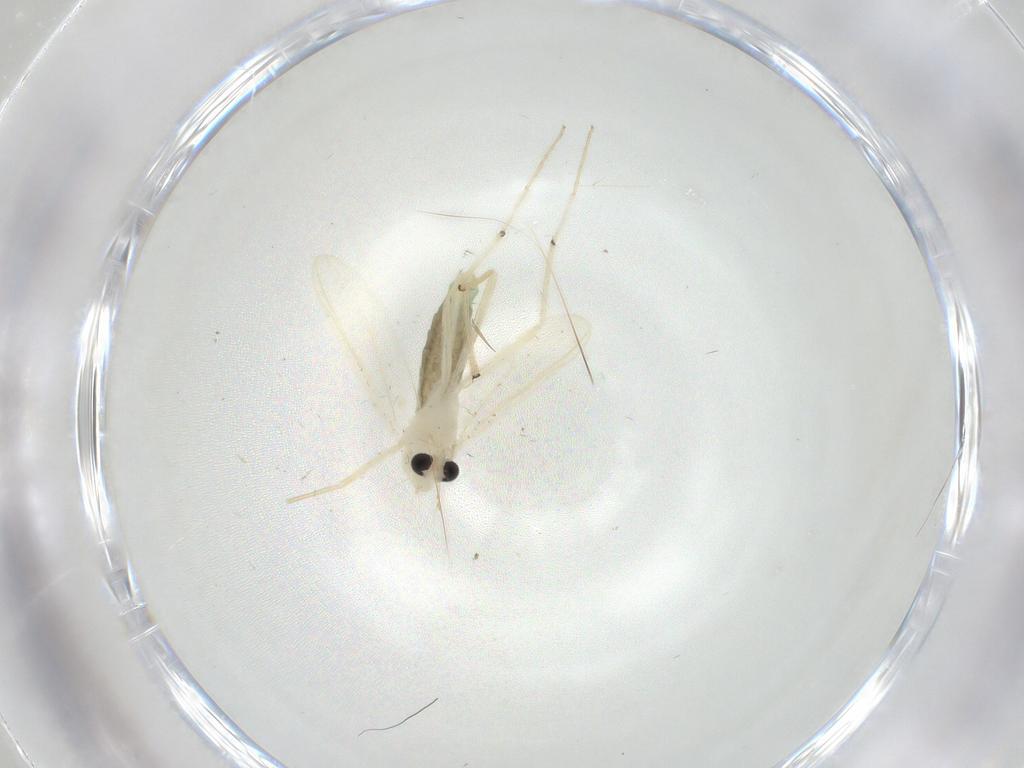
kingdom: Animalia
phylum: Arthropoda
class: Insecta
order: Diptera
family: Chironomidae
